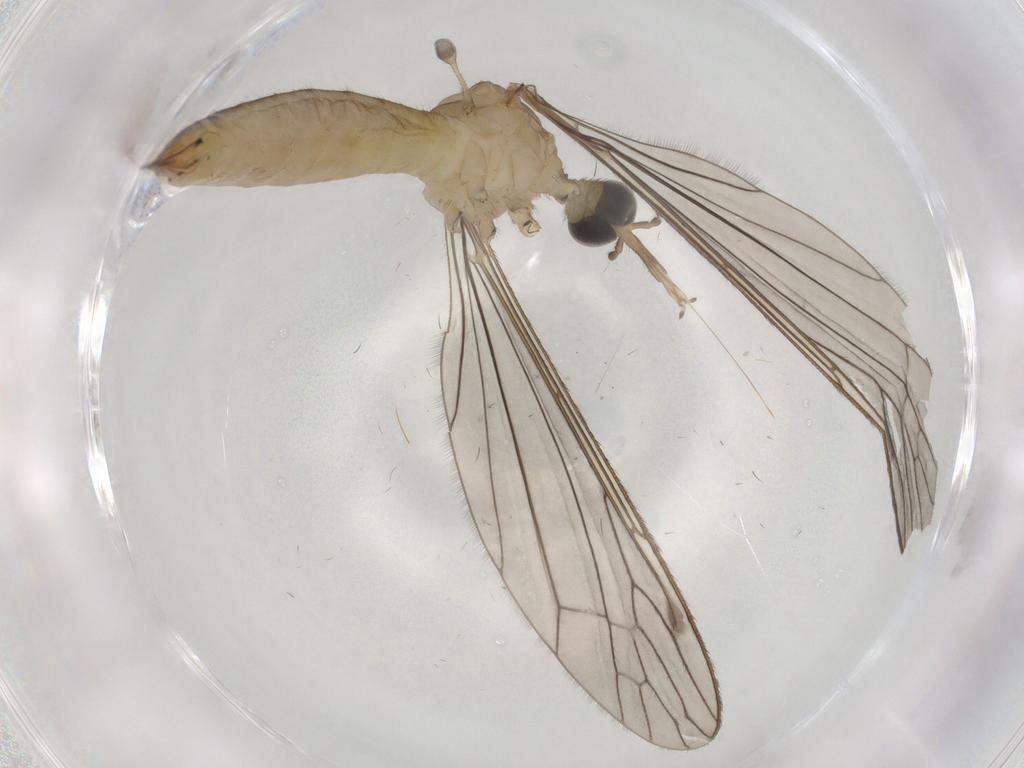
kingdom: Animalia
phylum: Arthropoda
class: Insecta
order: Diptera
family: Limoniidae
